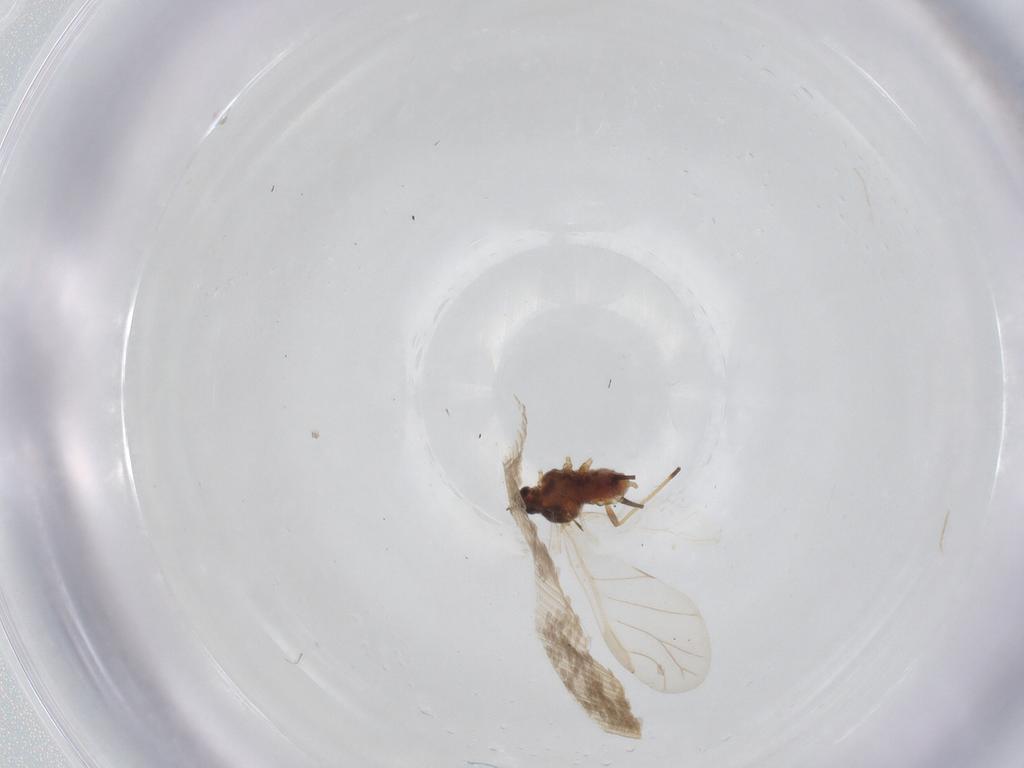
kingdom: Animalia
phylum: Arthropoda
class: Insecta
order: Hemiptera
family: Aphididae
